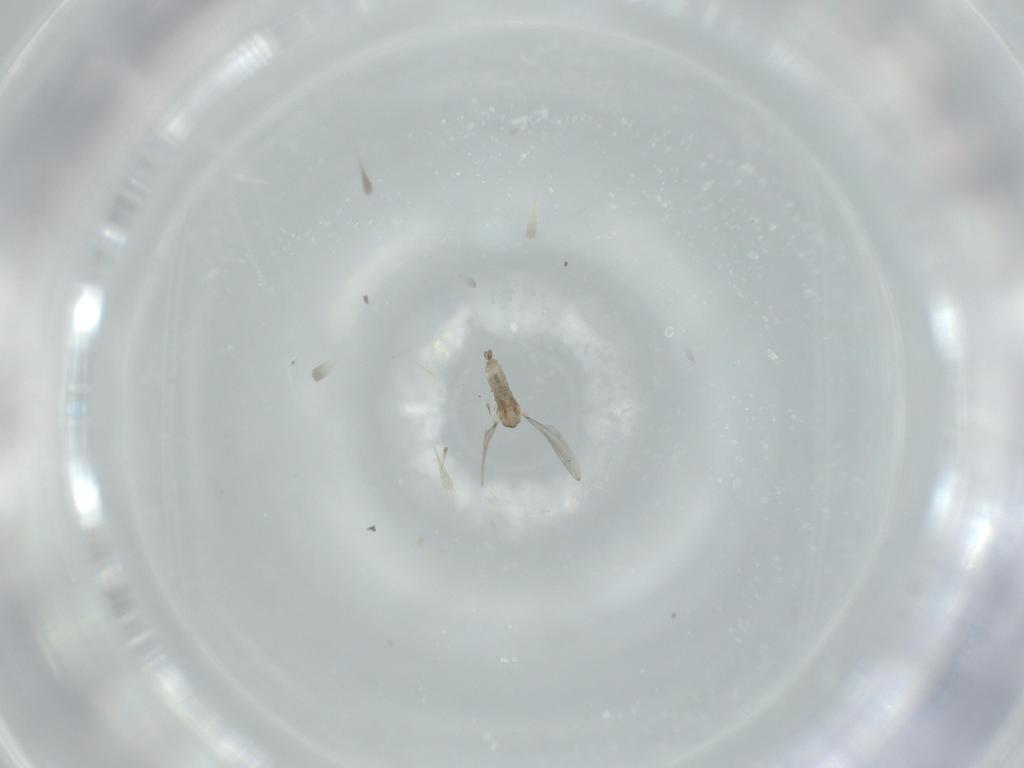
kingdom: Animalia
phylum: Arthropoda
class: Insecta
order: Diptera
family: Cecidomyiidae
